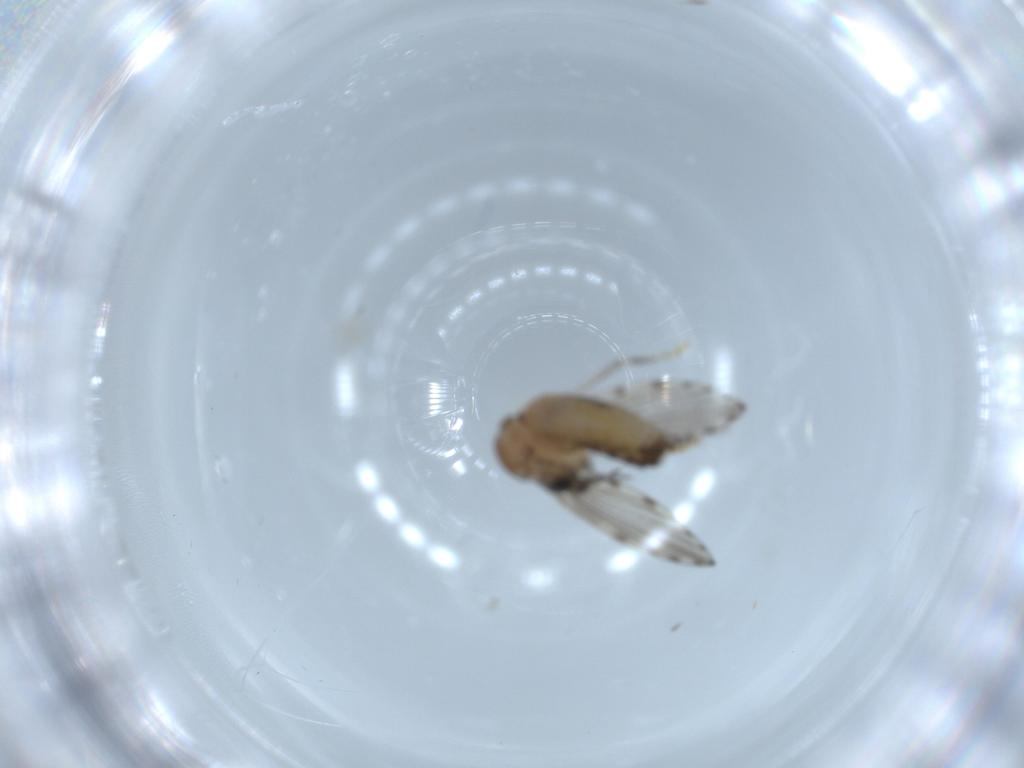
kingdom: Animalia
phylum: Arthropoda
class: Insecta
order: Diptera
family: Psychodidae
